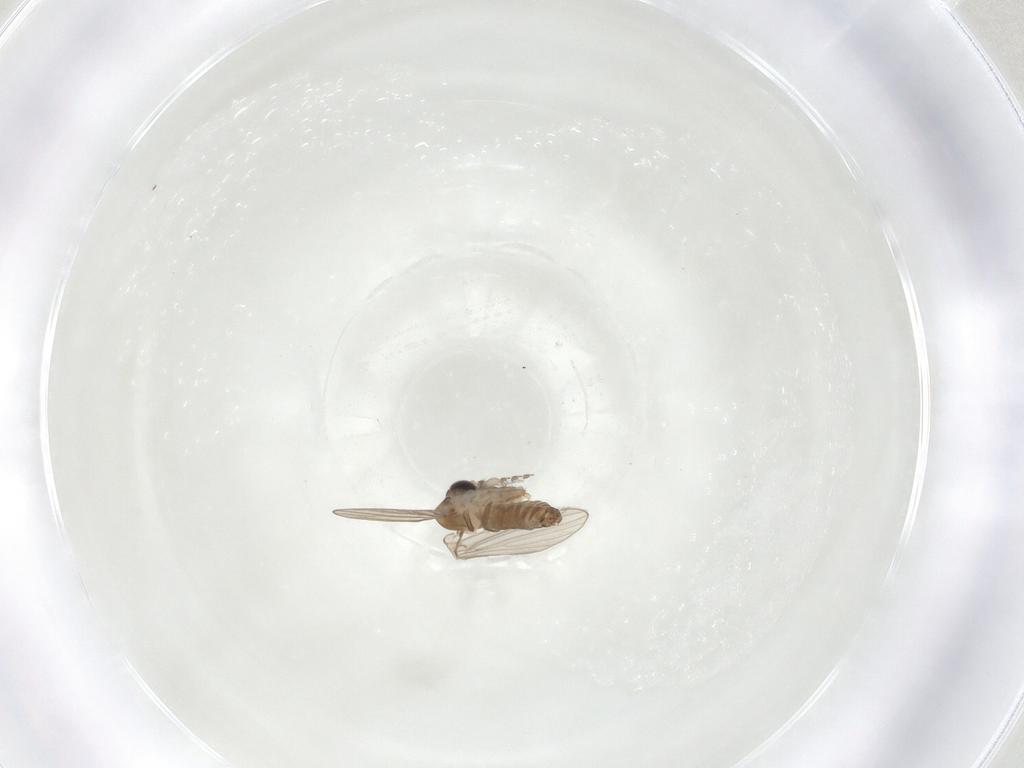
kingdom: Animalia
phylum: Arthropoda
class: Insecta
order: Diptera
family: Psychodidae
